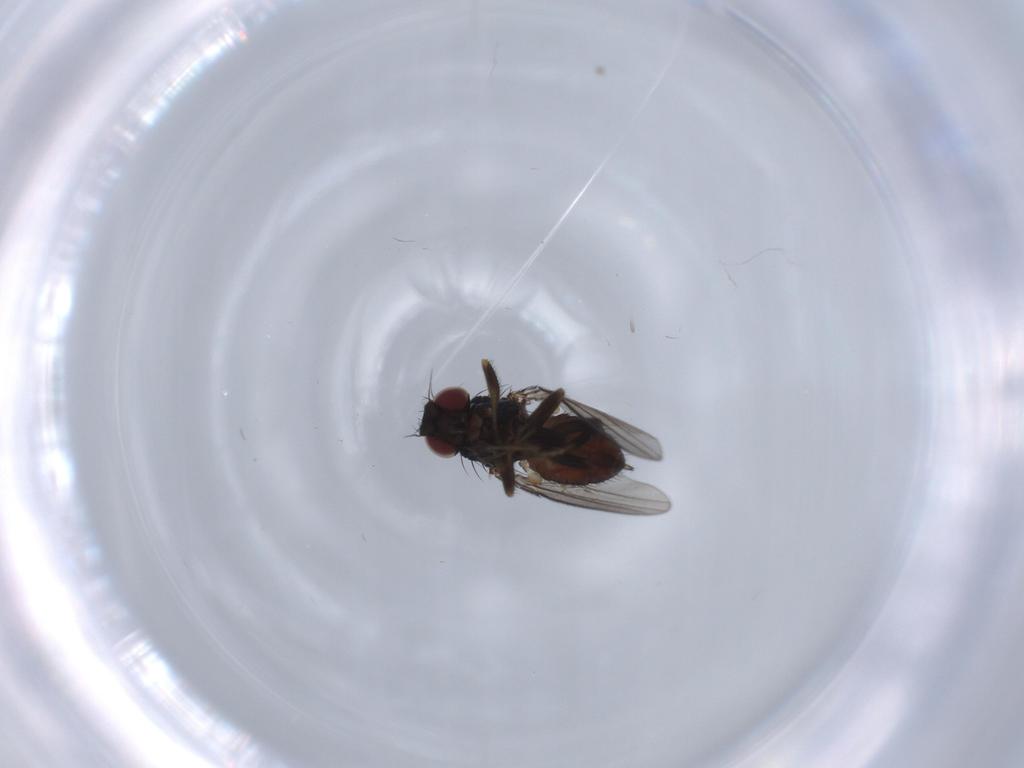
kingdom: Animalia
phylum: Arthropoda
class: Insecta
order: Diptera
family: Milichiidae
